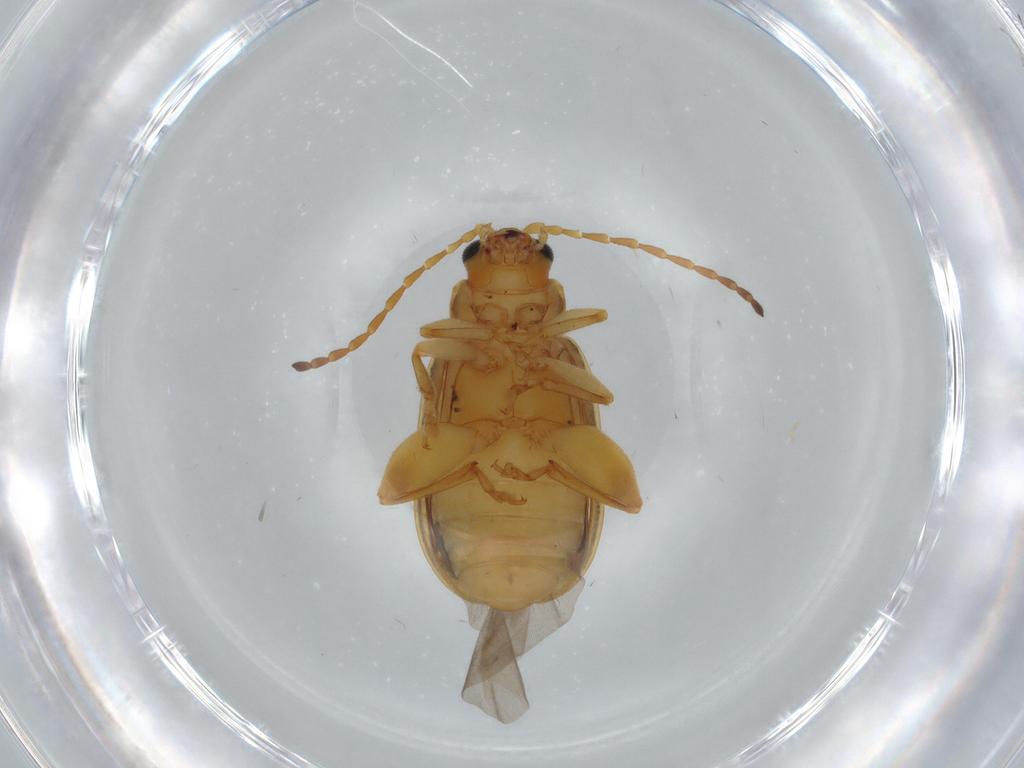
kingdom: Animalia
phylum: Arthropoda
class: Insecta
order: Coleoptera
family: Chrysomelidae
